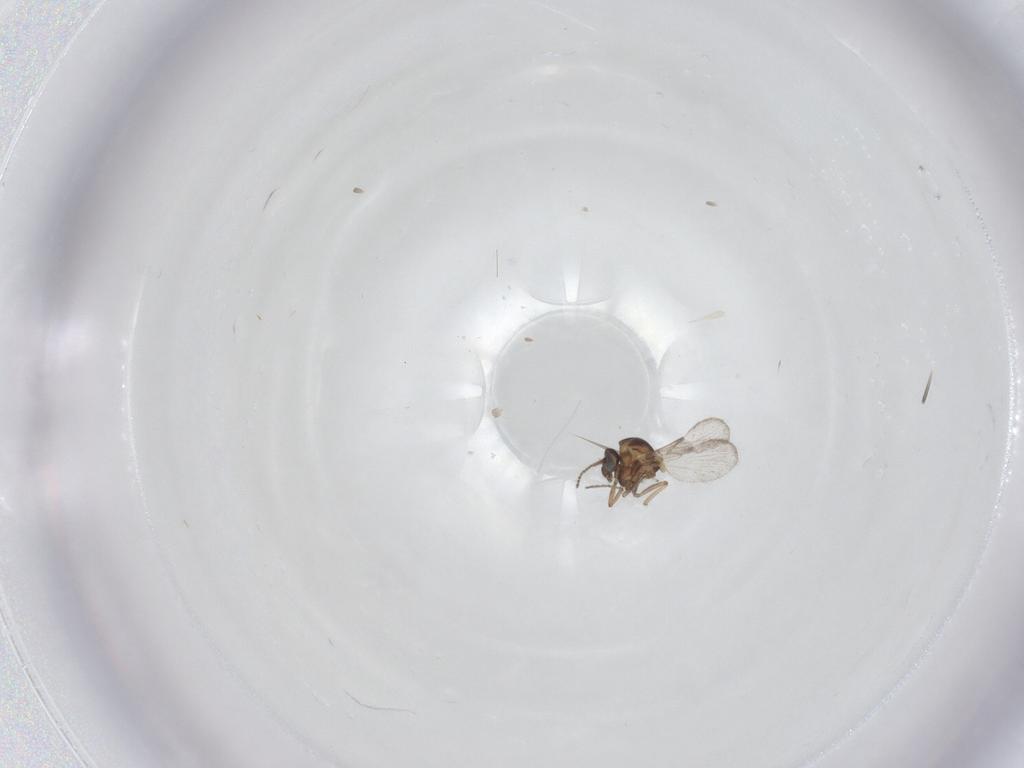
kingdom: Animalia
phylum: Arthropoda
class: Insecta
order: Diptera
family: Ceratopogonidae
